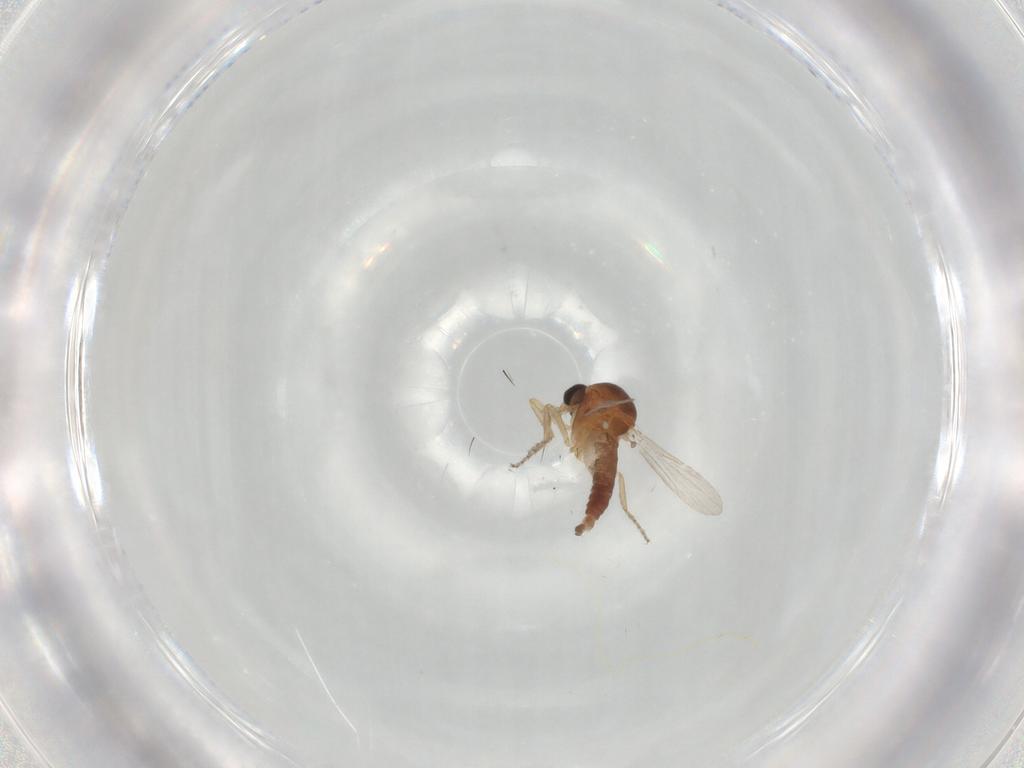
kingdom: Animalia
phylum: Arthropoda
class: Insecta
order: Diptera
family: Ceratopogonidae
